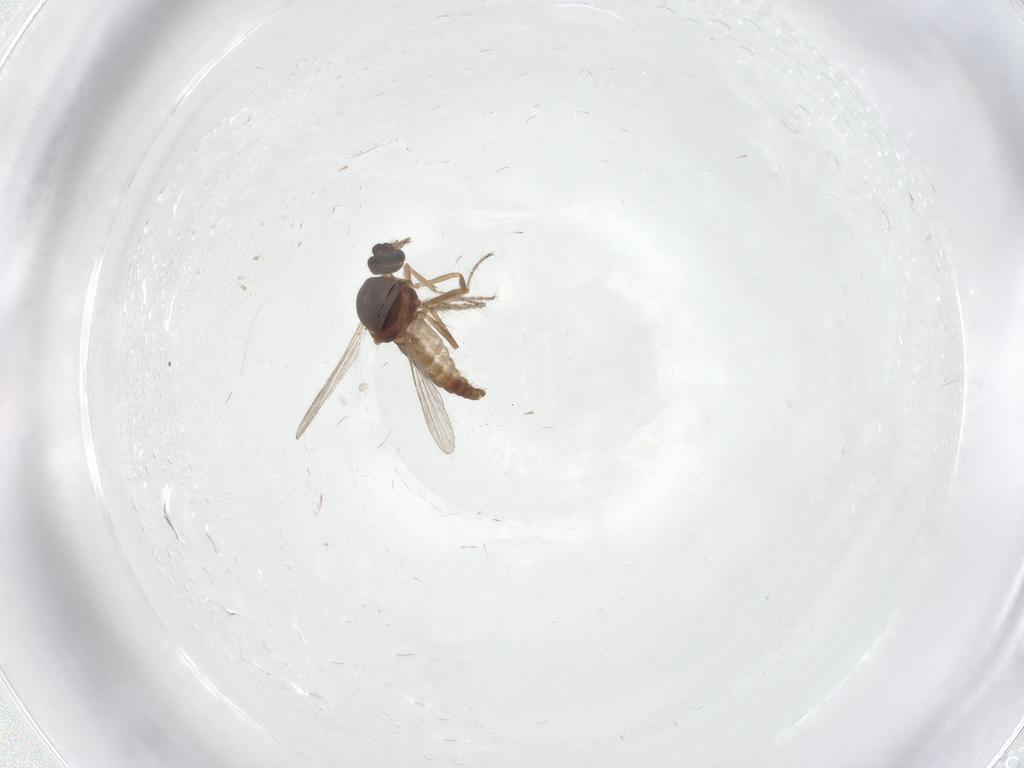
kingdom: Animalia
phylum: Arthropoda
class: Insecta
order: Diptera
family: Ceratopogonidae
